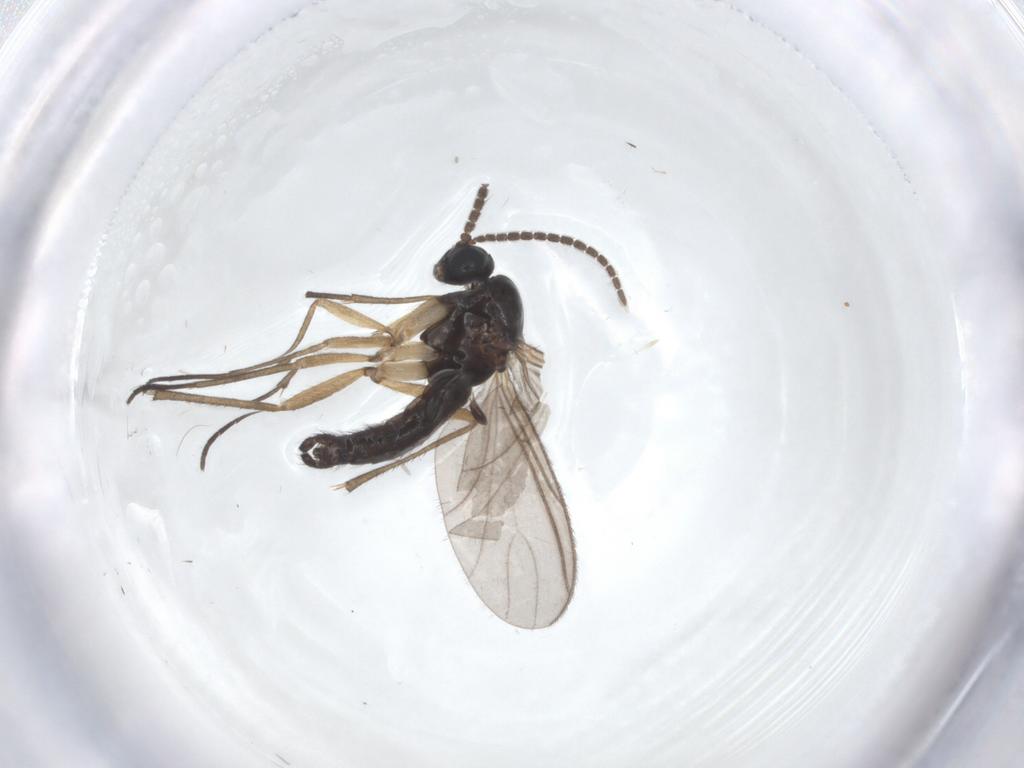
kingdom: Animalia
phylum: Arthropoda
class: Insecta
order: Diptera
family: Sciaridae
